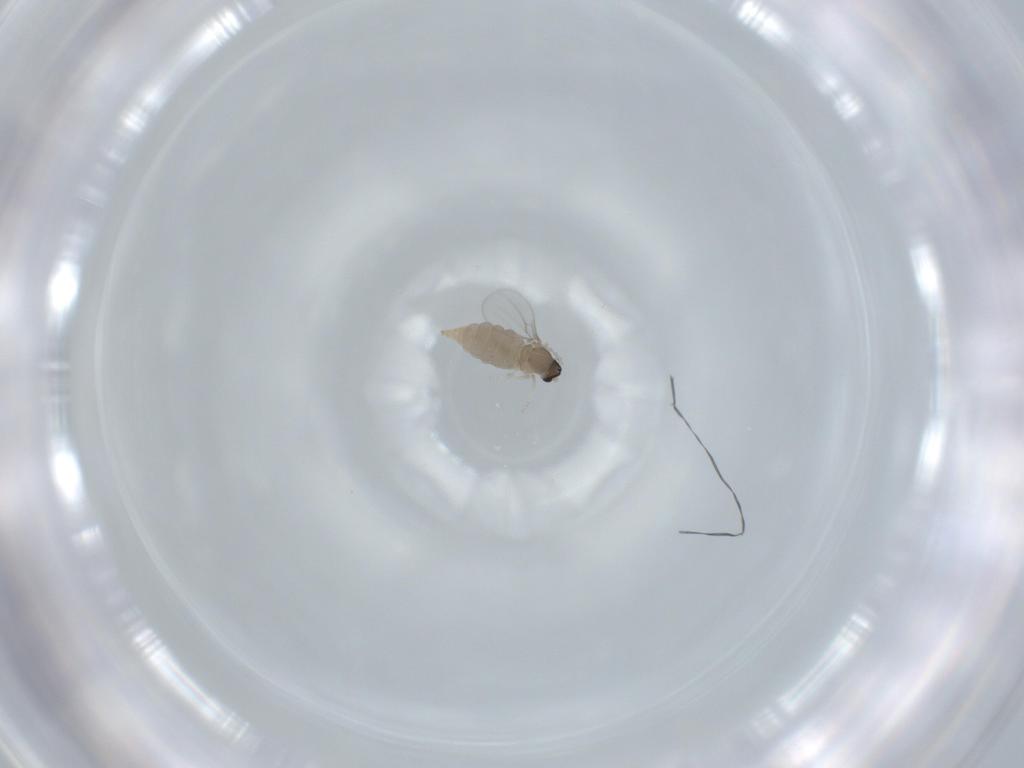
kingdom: Animalia
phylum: Arthropoda
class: Insecta
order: Diptera
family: Cecidomyiidae
